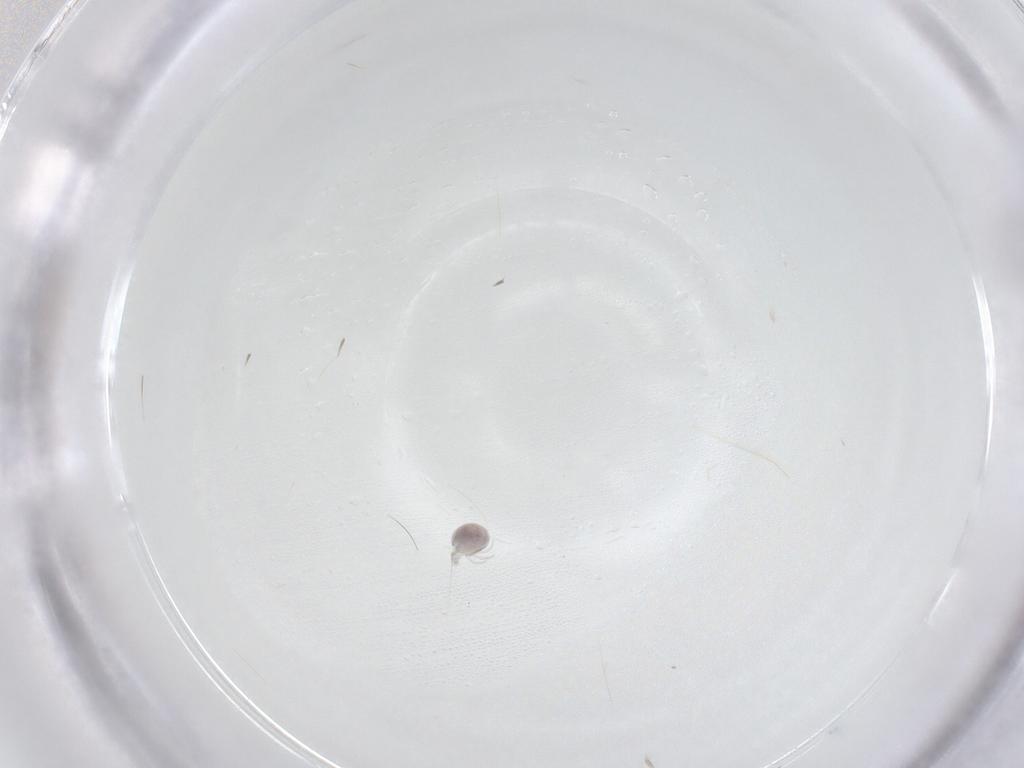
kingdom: Animalia
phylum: Arthropoda
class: Arachnida
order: Trombidiformes
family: Pionidae
